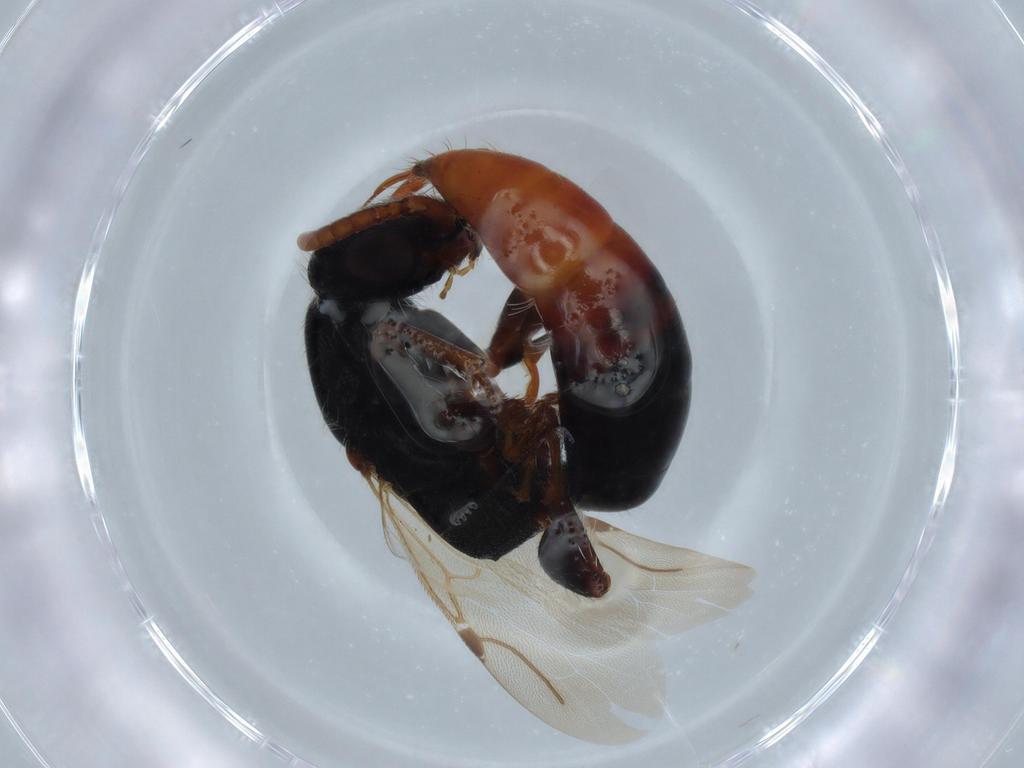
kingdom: Animalia
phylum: Arthropoda
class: Insecta
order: Hymenoptera
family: Bethylidae
